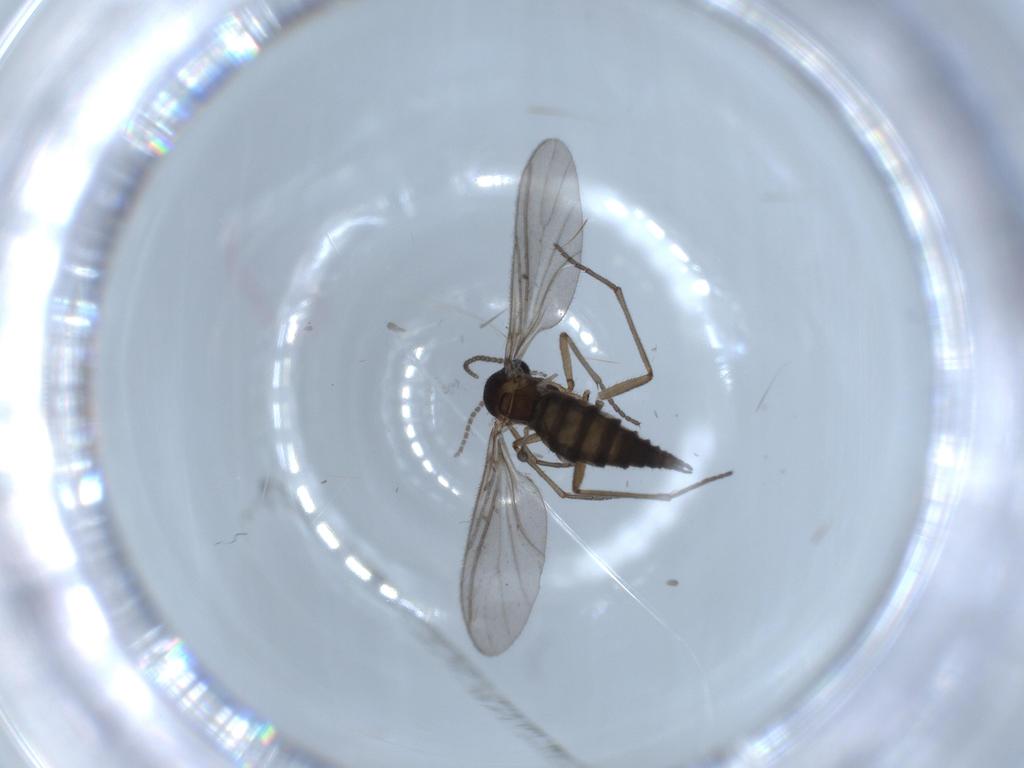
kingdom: Animalia
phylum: Arthropoda
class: Insecta
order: Diptera
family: Sciaridae
